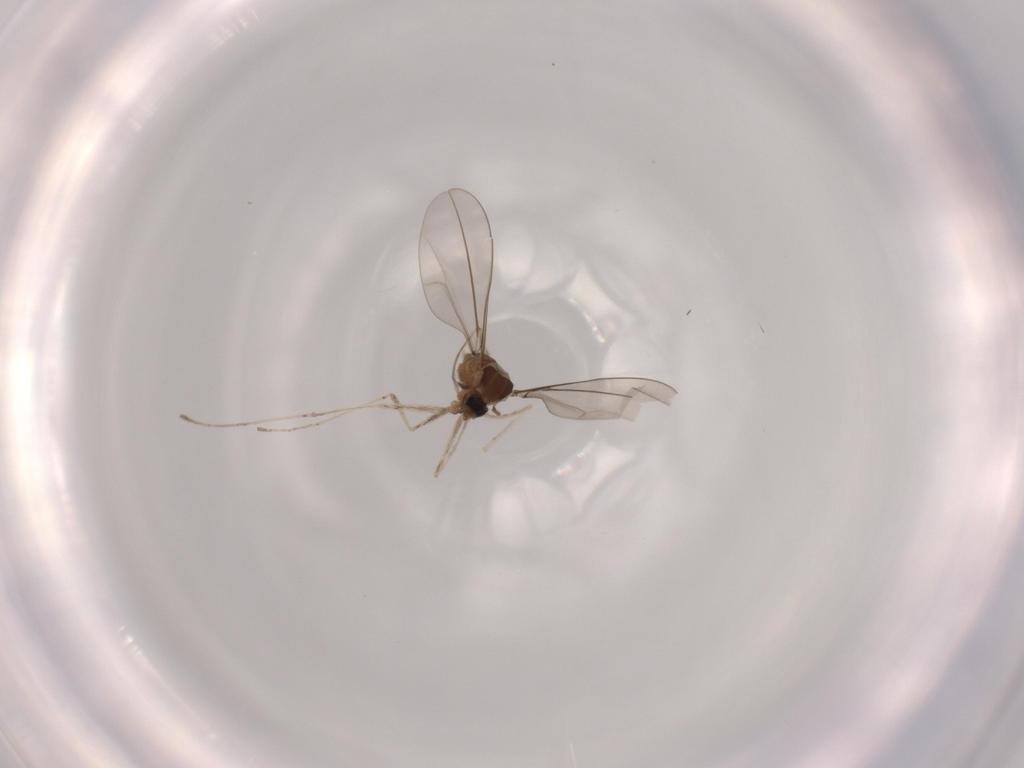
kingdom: Animalia
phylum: Arthropoda
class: Insecta
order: Diptera
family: Cecidomyiidae
